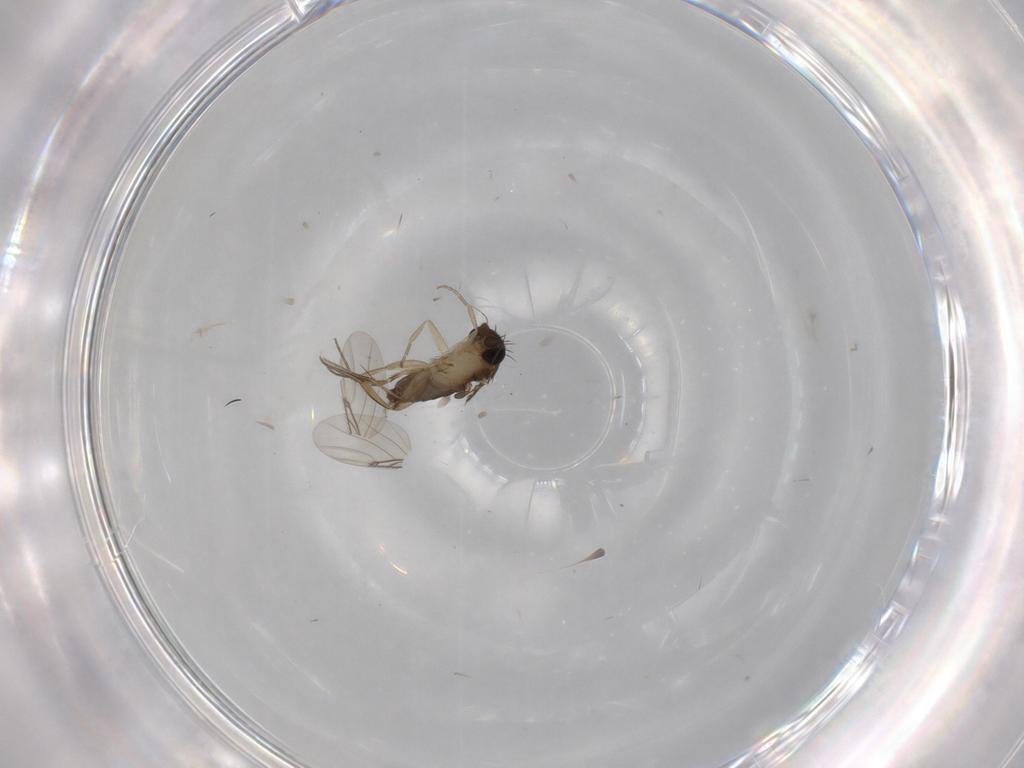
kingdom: Animalia
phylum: Arthropoda
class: Insecta
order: Diptera
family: Phoridae
